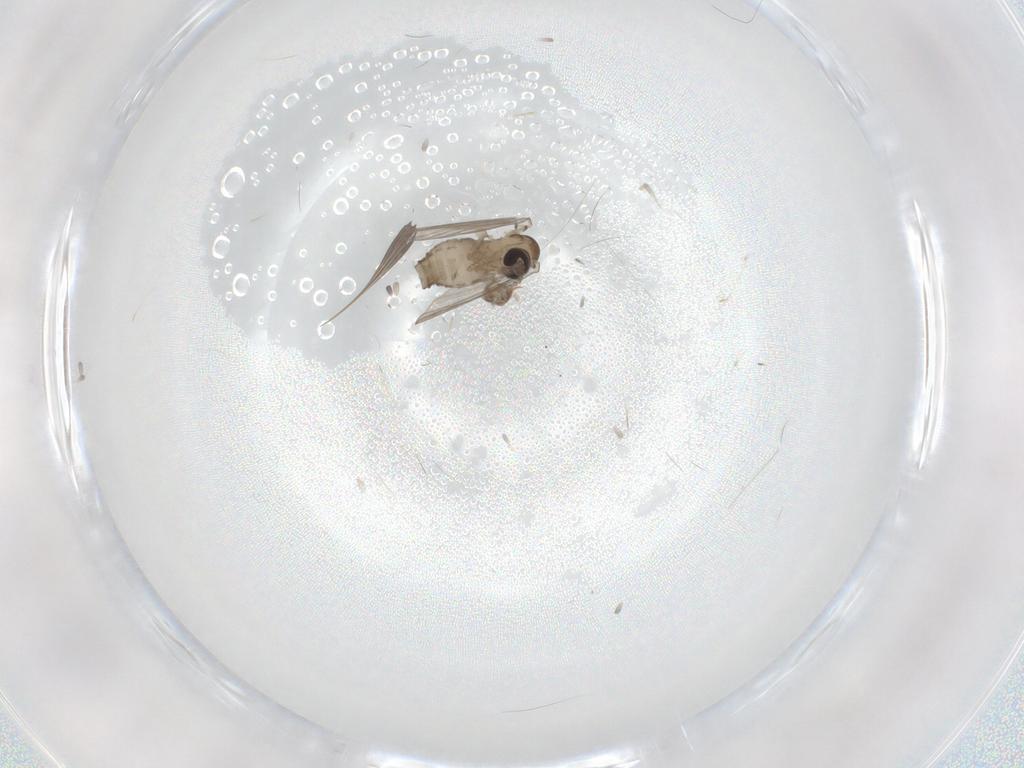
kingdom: Animalia
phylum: Arthropoda
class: Insecta
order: Diptera
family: Psychodidae
